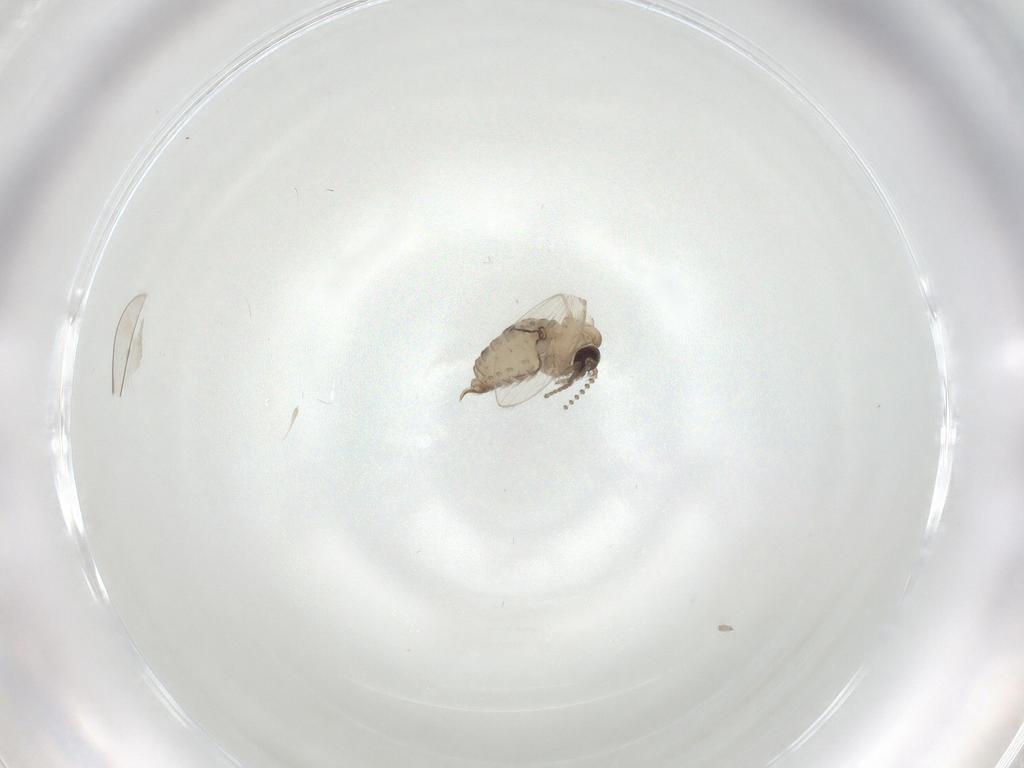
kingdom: Animalia
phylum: Arthropoda
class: Insecta
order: Diptera
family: Psychodidae
